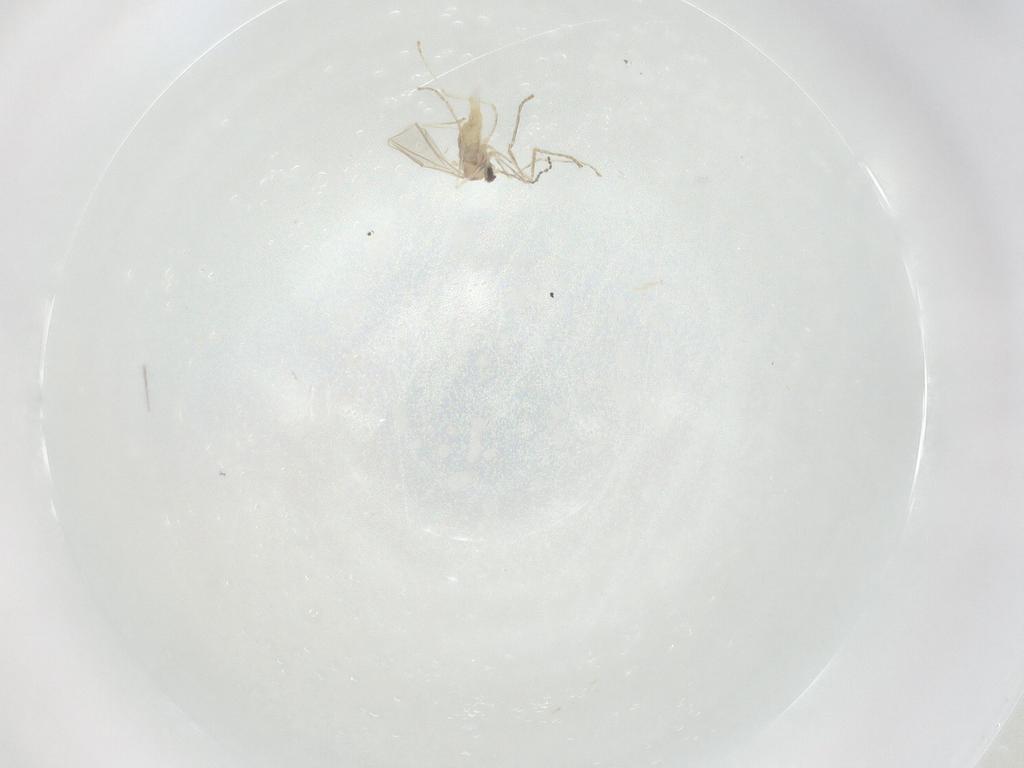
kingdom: Animalia
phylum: Arthropoda
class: Insecta
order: Diptera
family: Cecidomyiidae
